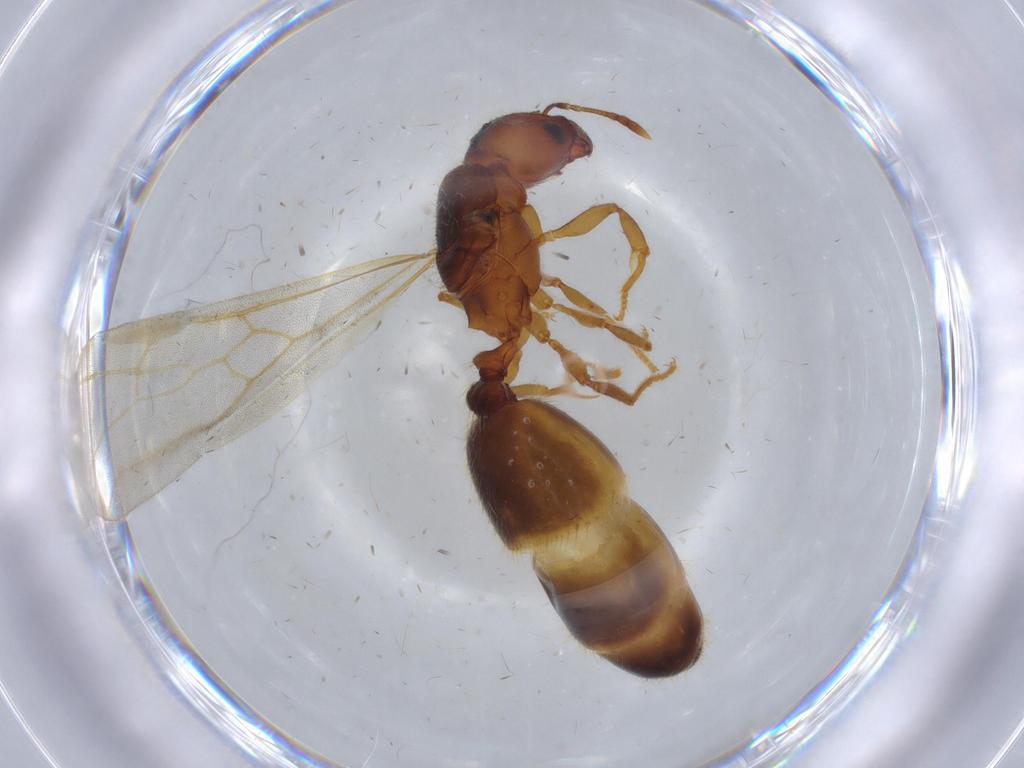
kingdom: Animalia
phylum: Arthropoda
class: Insecta
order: Hymenoptera
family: Formicidae
